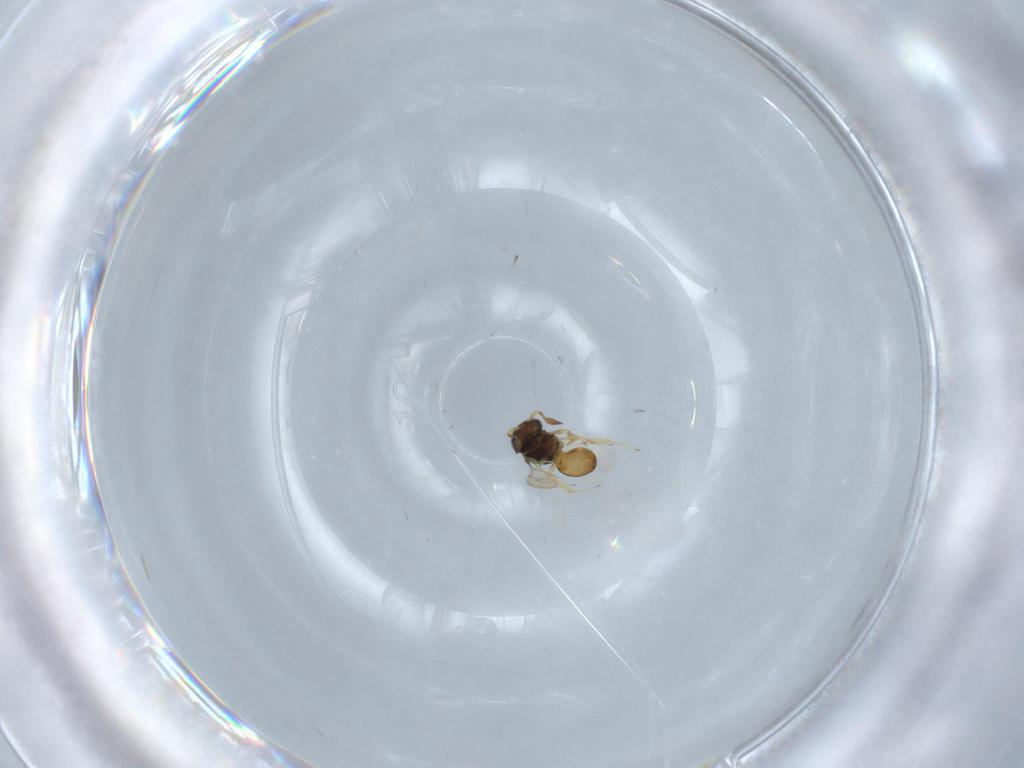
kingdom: Animalia
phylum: Arthropoda
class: Insecta
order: Hymenoptera
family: Scelionidae
